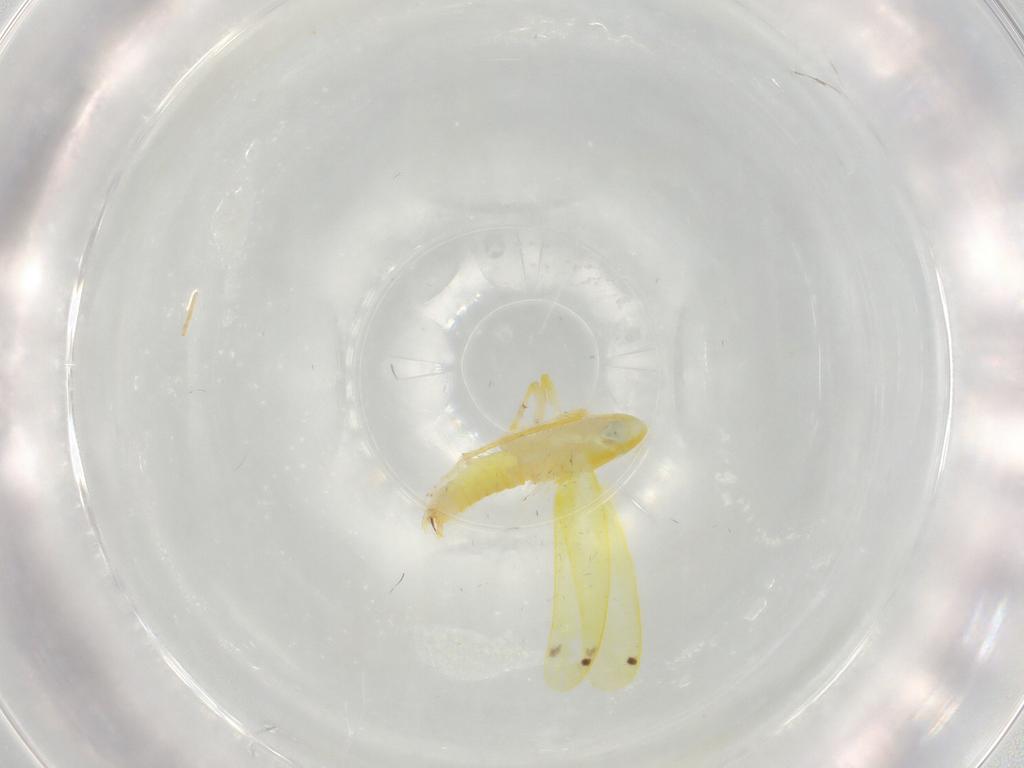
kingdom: Animalia
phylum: Arthropoda
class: Insecta
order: Hemiptera
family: Cicadellidae
